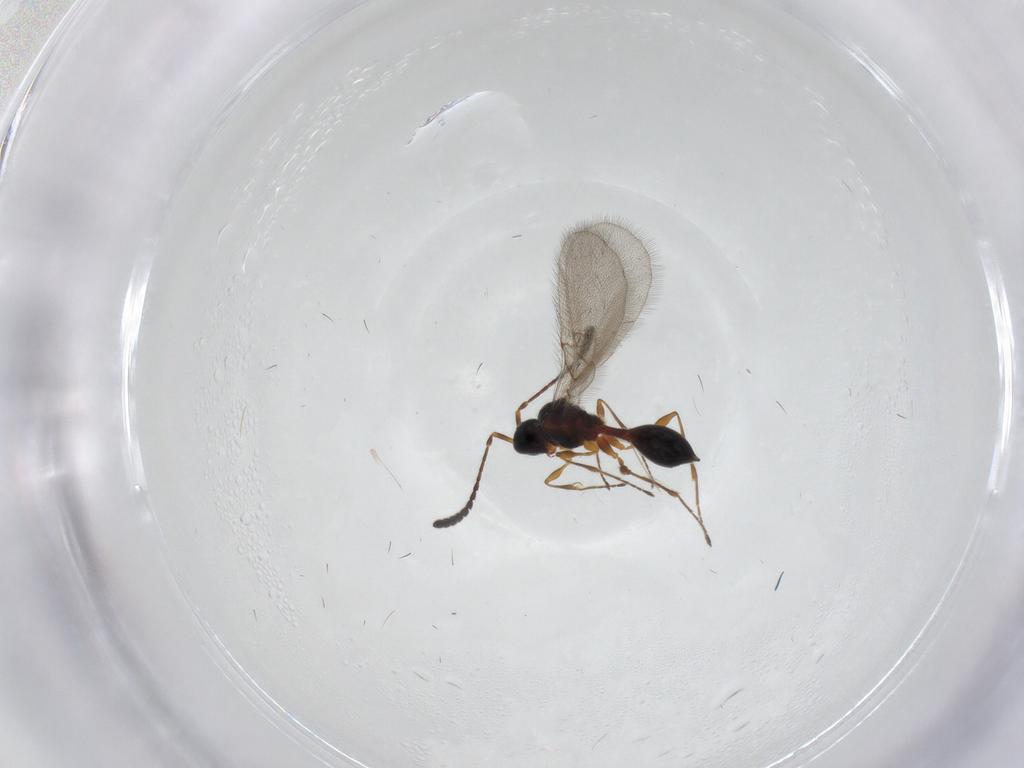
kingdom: Animalia
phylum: Arthropoda
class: Insecta
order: Hymenoptera
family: Diapriidae
